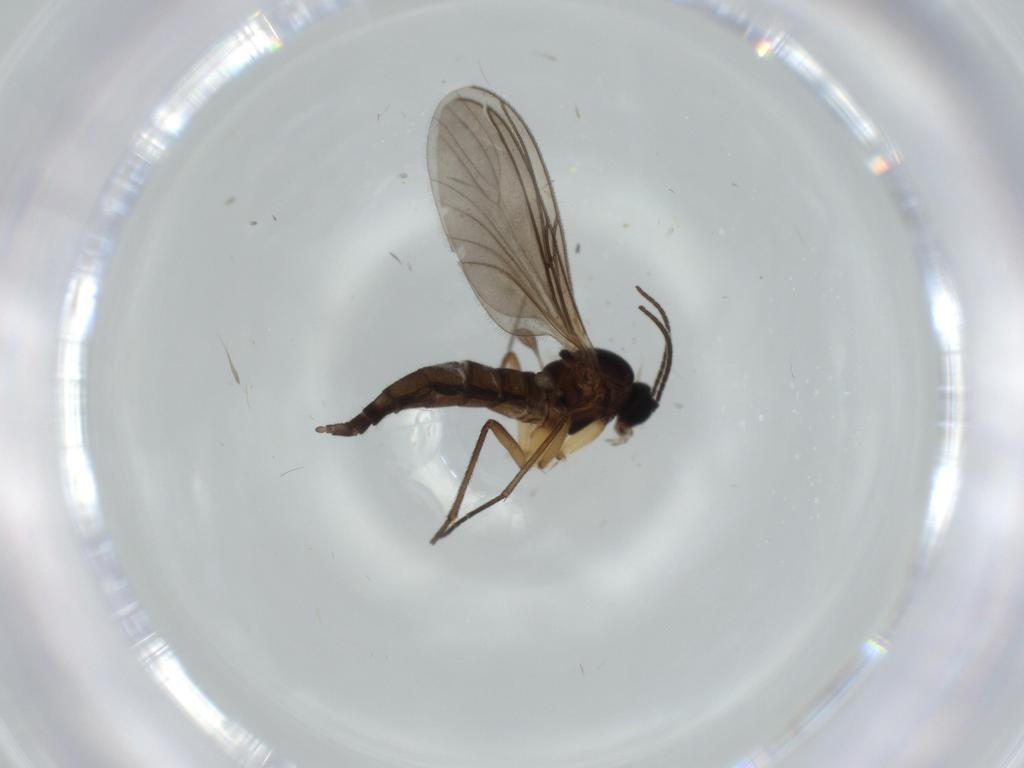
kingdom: Animalia
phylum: Arthropoda
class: Insecta
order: Diptera
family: Sciaridae
